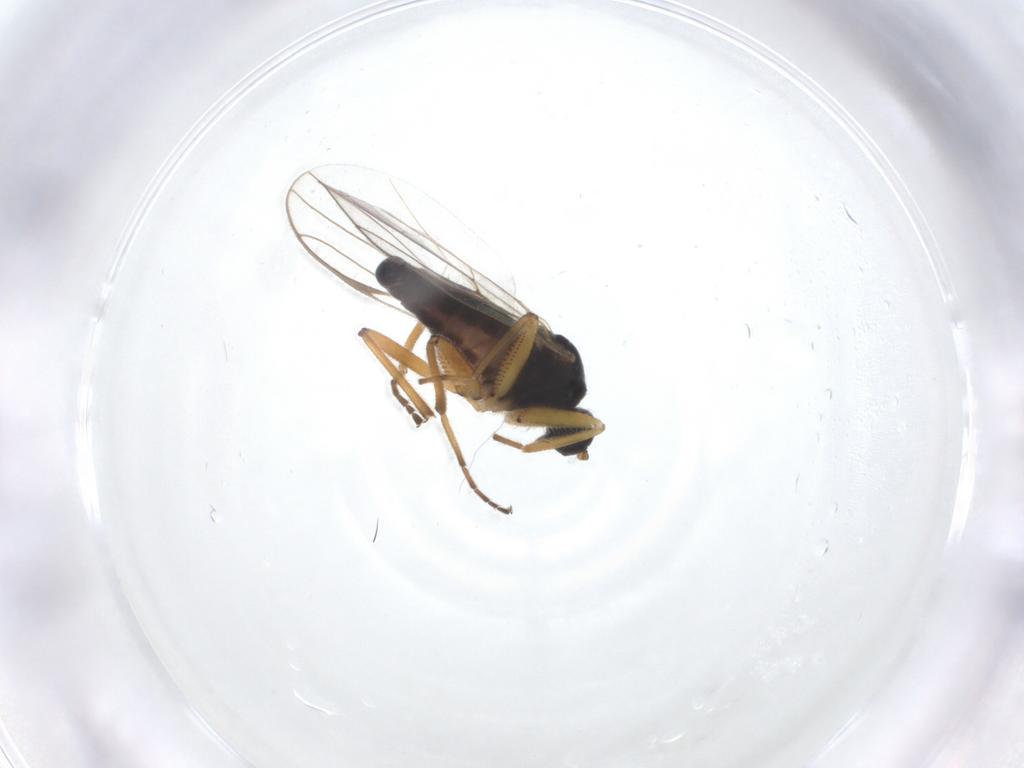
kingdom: Animalia
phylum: Arthropoda
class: Insecta
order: Diptera
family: Hybotidae
